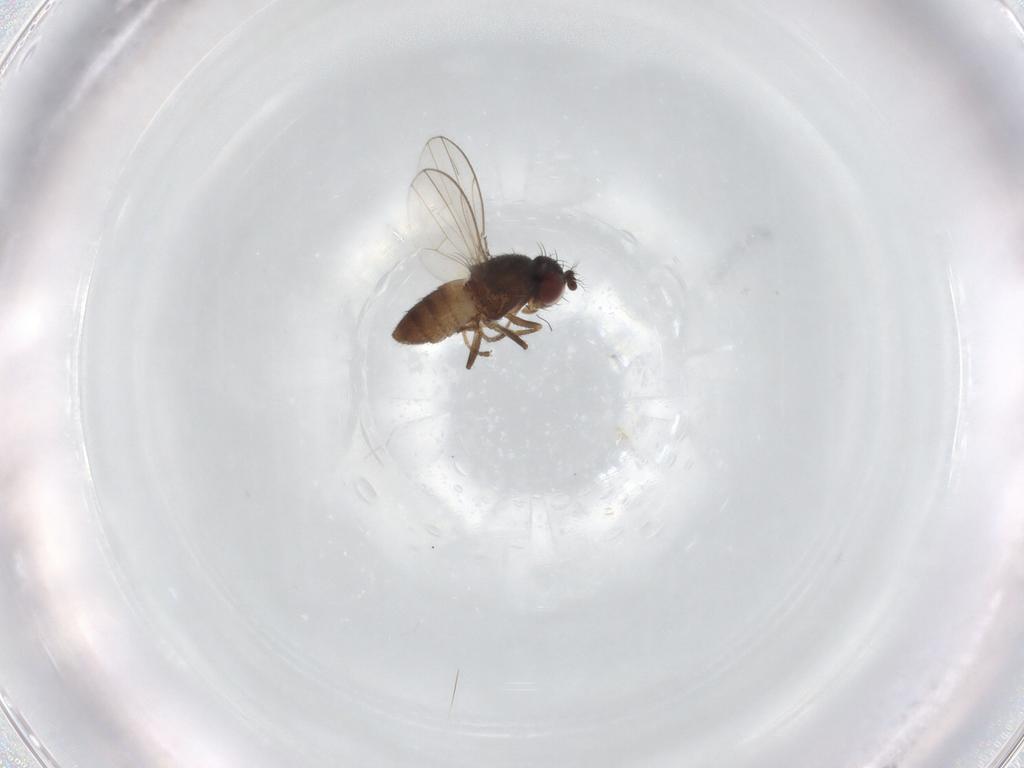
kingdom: Animalia
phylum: Arthropoda
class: Insecta
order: Diptera
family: Ephydridae
